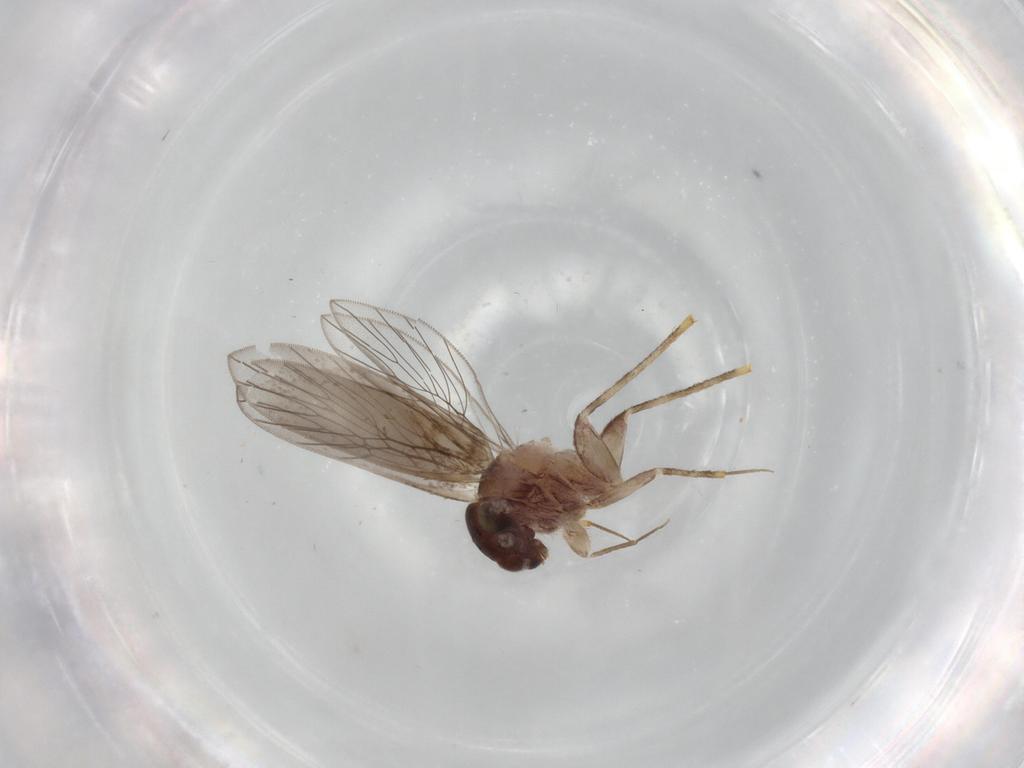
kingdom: Animalia
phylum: Arthropoda
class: Insecta
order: Psocodea
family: Lepidopsocidae
